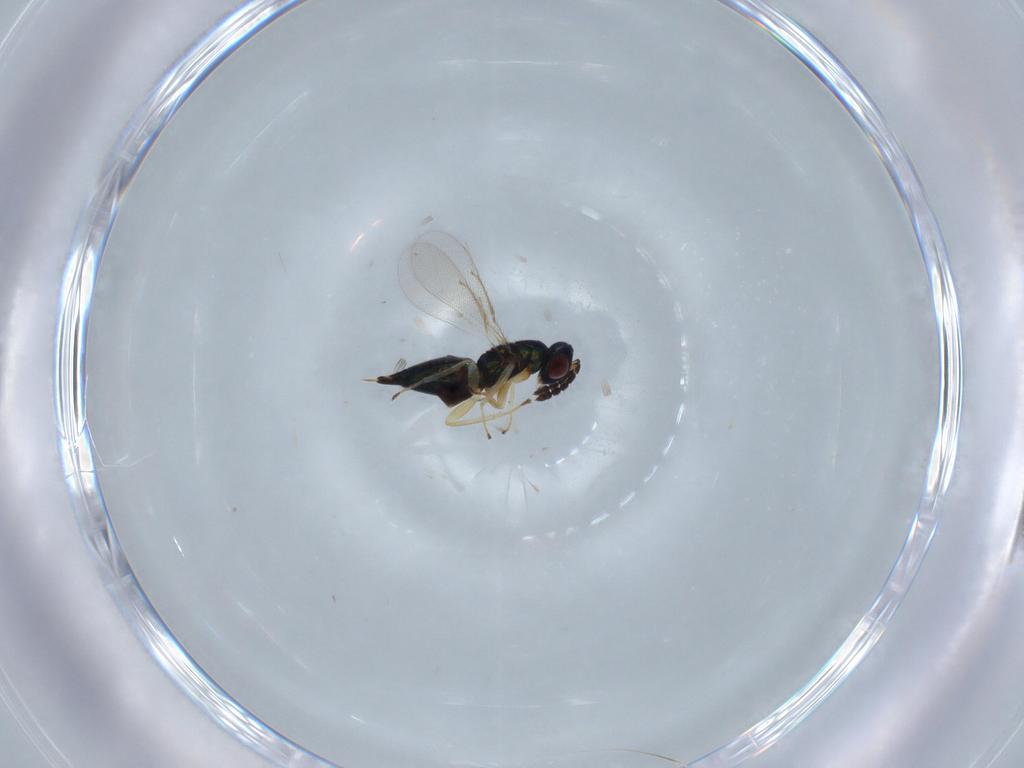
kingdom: Animalia
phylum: Arthropoda
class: Insecta
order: Hymenoptera
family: Eulophidae
